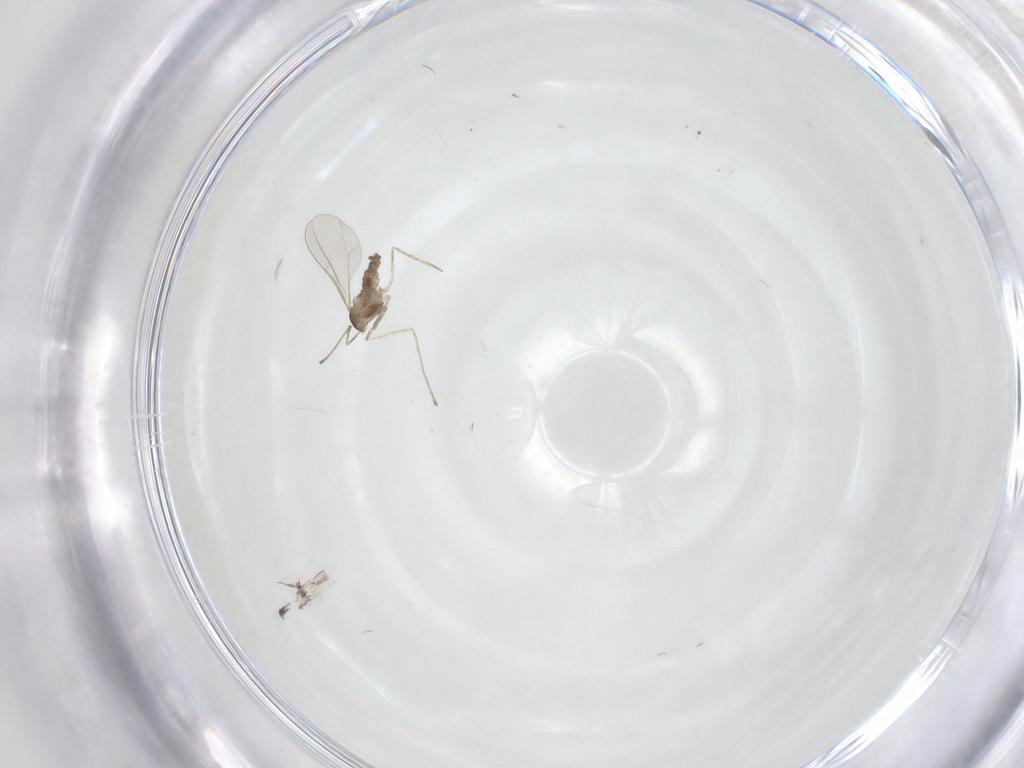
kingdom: Animalia
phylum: Arthropoda
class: Insecta
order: Diptera
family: Cecidomyiidae
